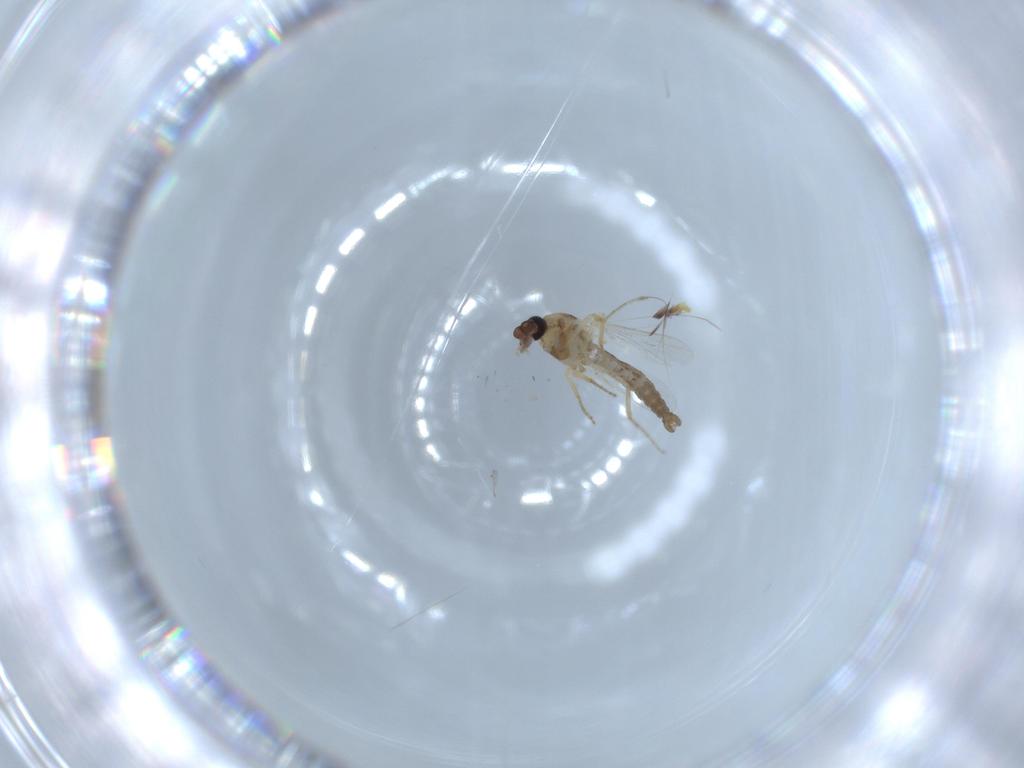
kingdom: Animalia
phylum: Arthropoda
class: Insecta
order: Diptera
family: Ceratopogonidae
